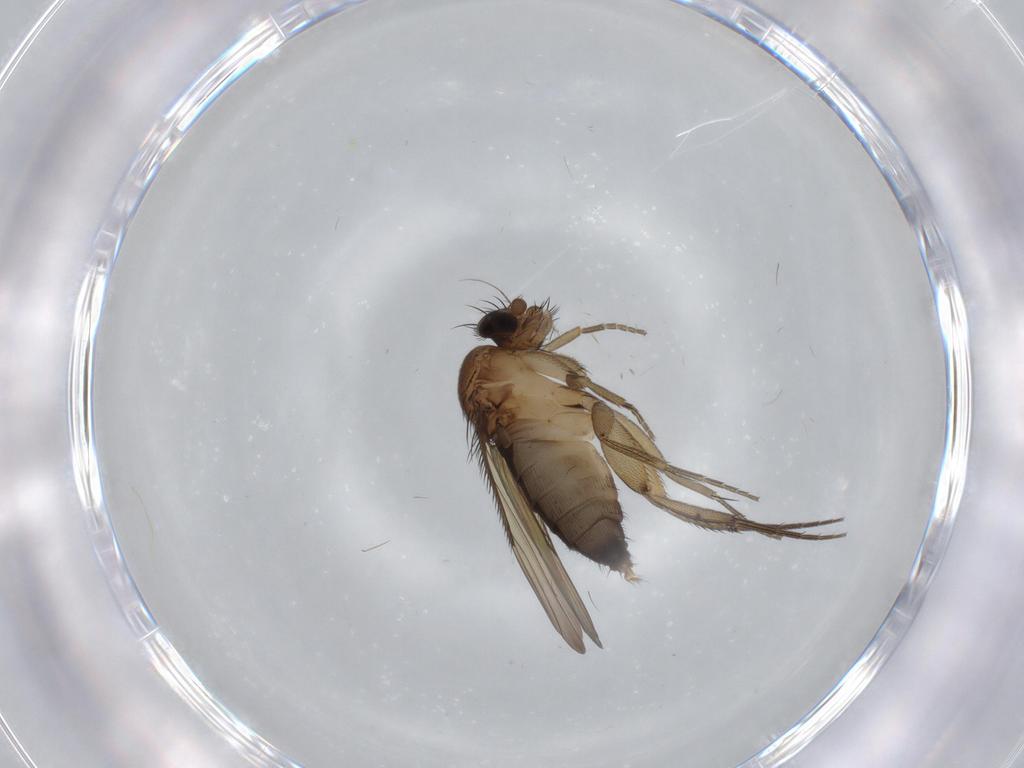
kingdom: Animalia
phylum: Arthropoda
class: Insecta
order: Diptera
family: Phoridae
